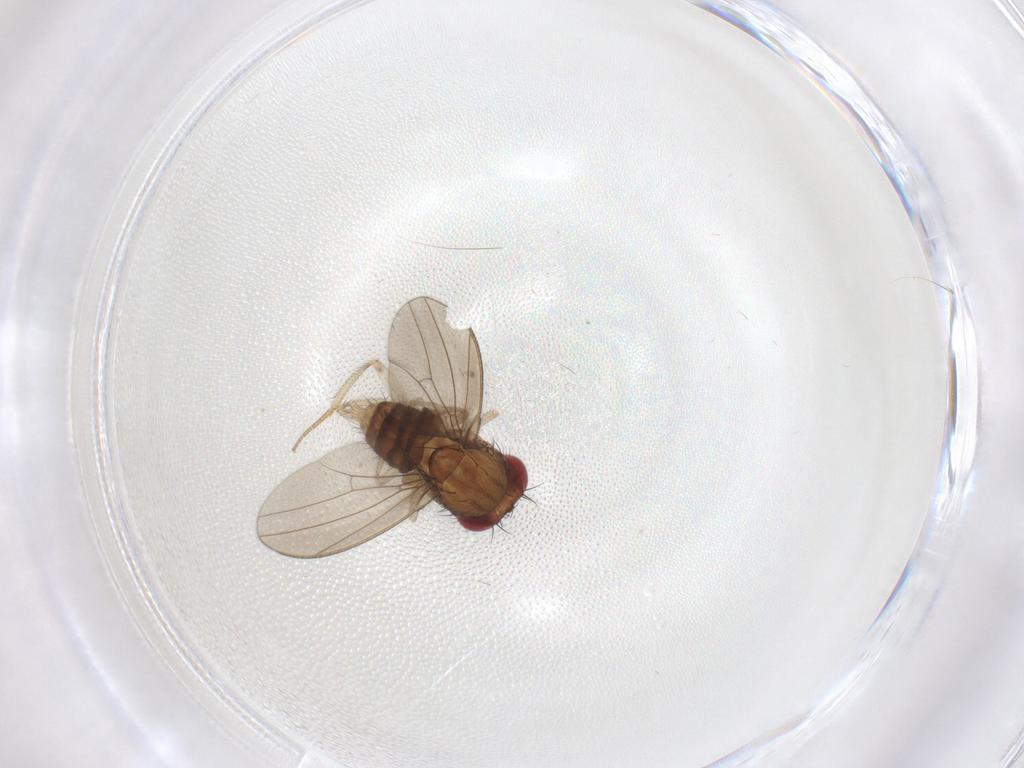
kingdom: Animalia
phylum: Arthropoda
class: Insecta
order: Diptera
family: Drosophilidae
